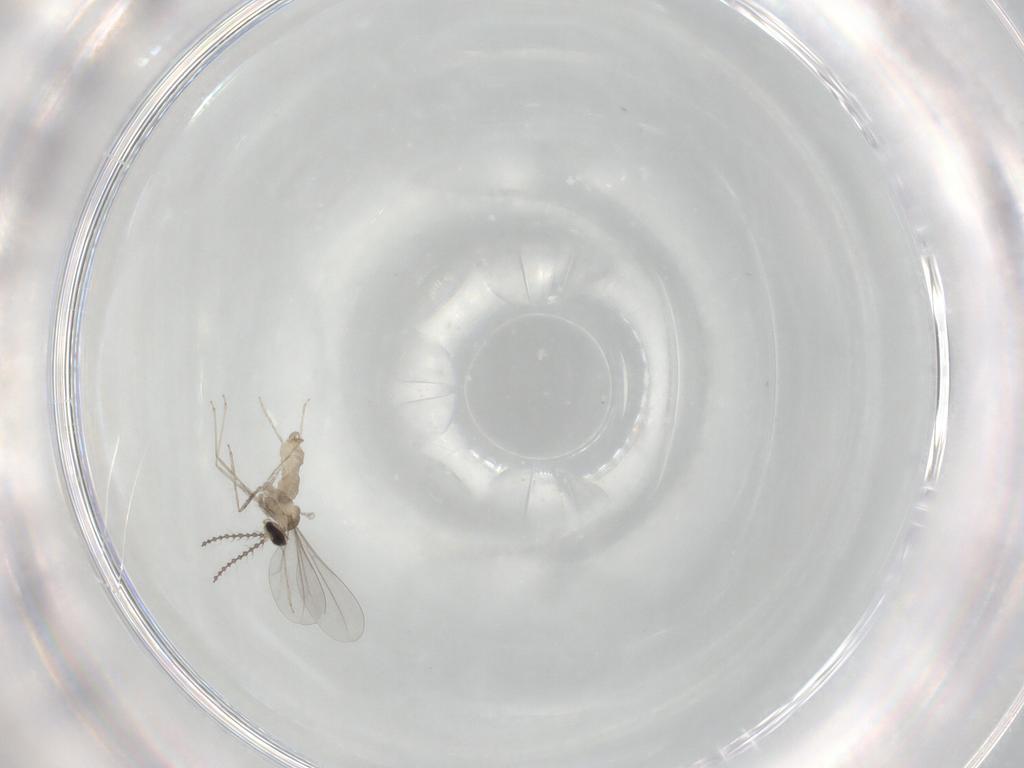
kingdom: Animalia
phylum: Arthropoda
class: Insecta
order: Diptera
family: Cecidomyiidae
